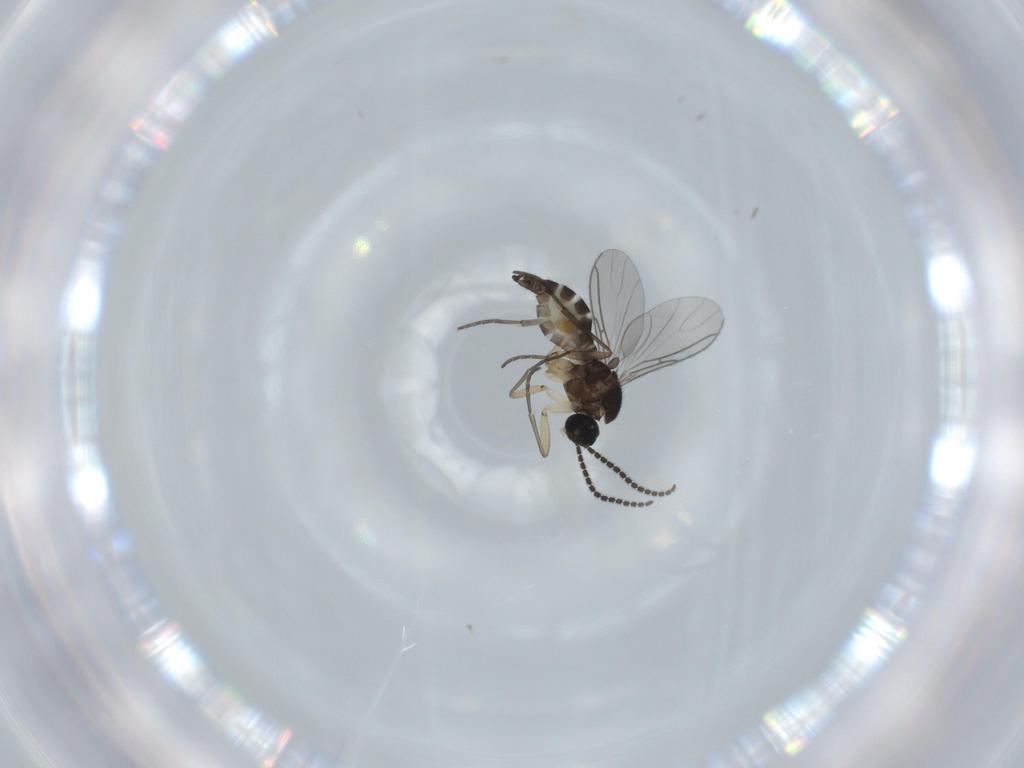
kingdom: Animalia
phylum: Arthropoda
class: Insecta
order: Diptera
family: Sciaridae
